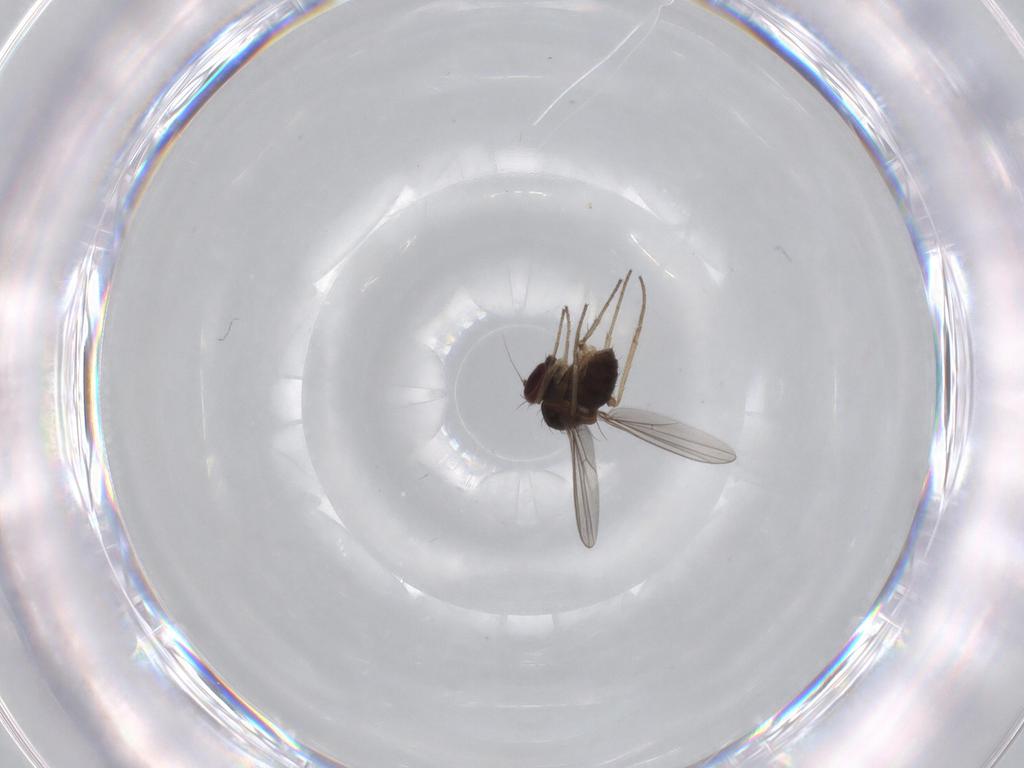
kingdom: Animalia
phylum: Arthropoda
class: Insecta
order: Diptera
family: Dolichopodidae
